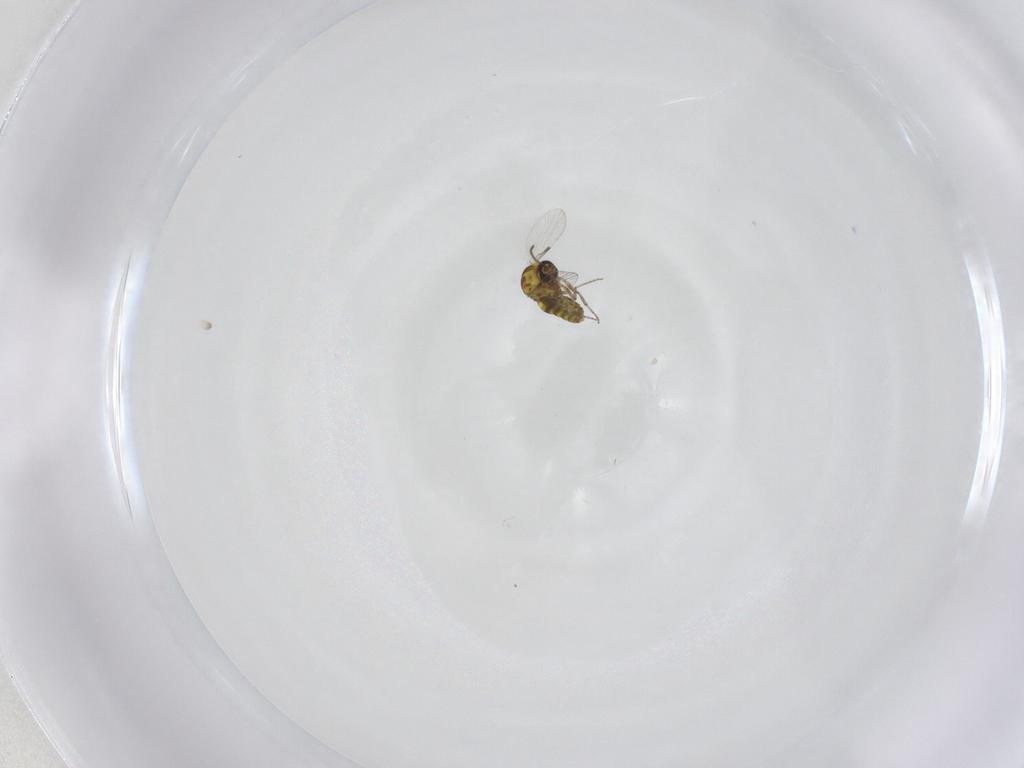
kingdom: Animalia
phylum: Arthropoda
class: Insecta
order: Diptera
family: Ceratopogonidae
